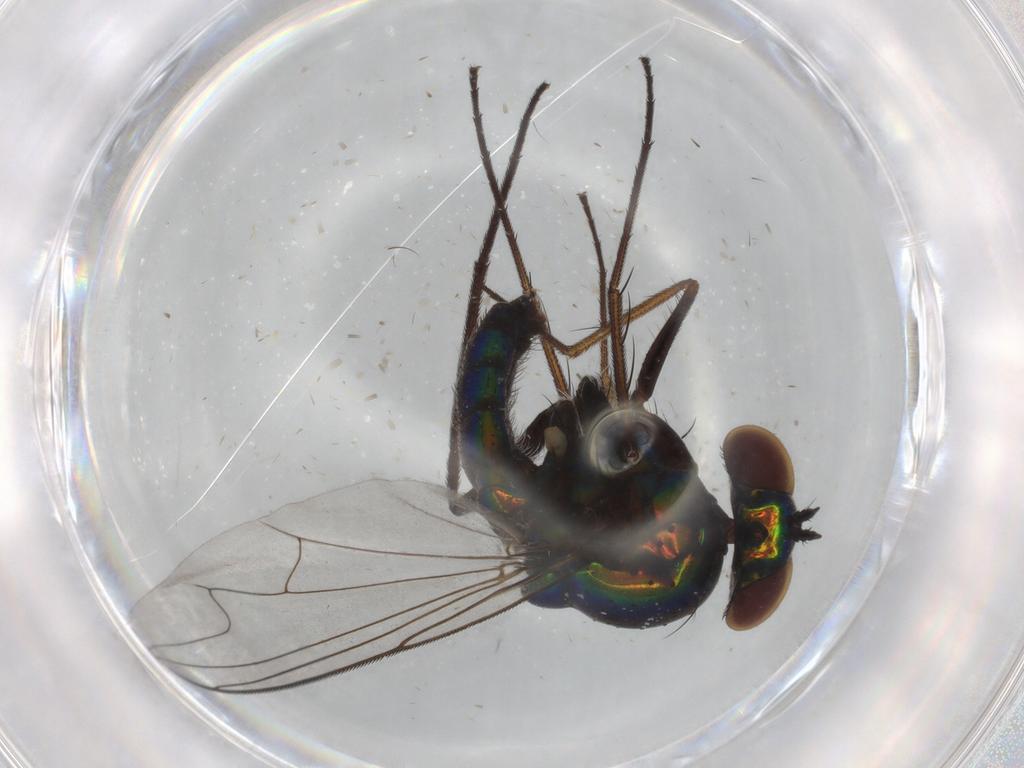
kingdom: Animalia
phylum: Arthropoda
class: Insecta
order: Diptera
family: Dolichopodidae
